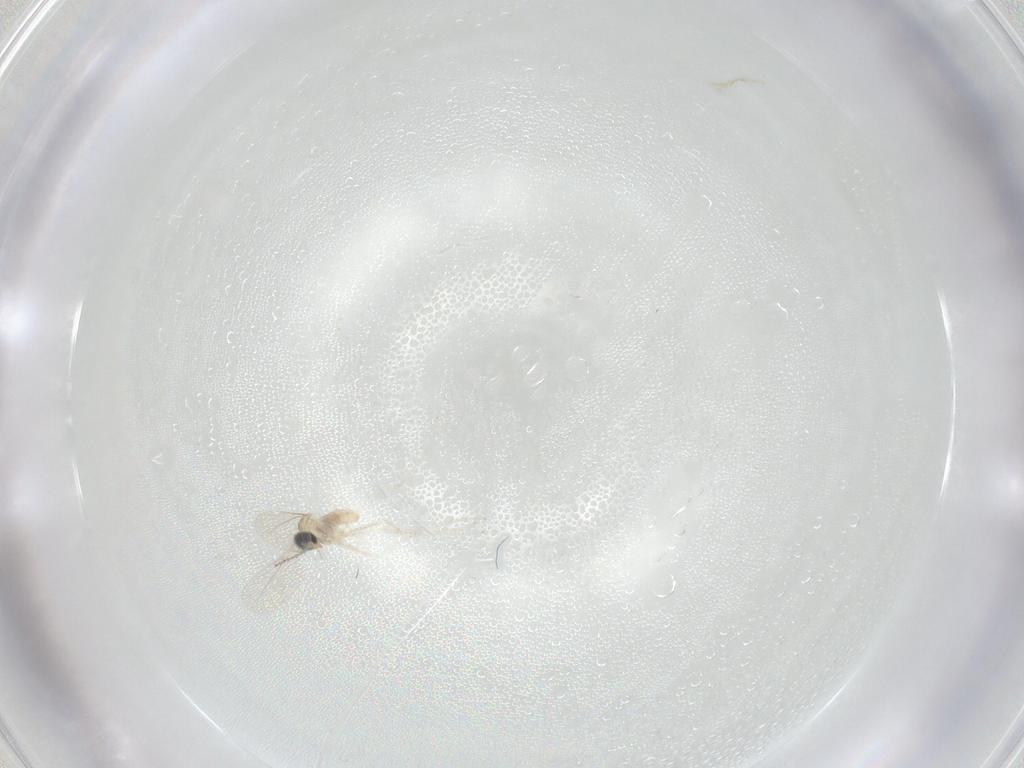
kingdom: Animalia
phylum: Arthropoda
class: Insecta
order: Diptera
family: Cecidomyiidae
